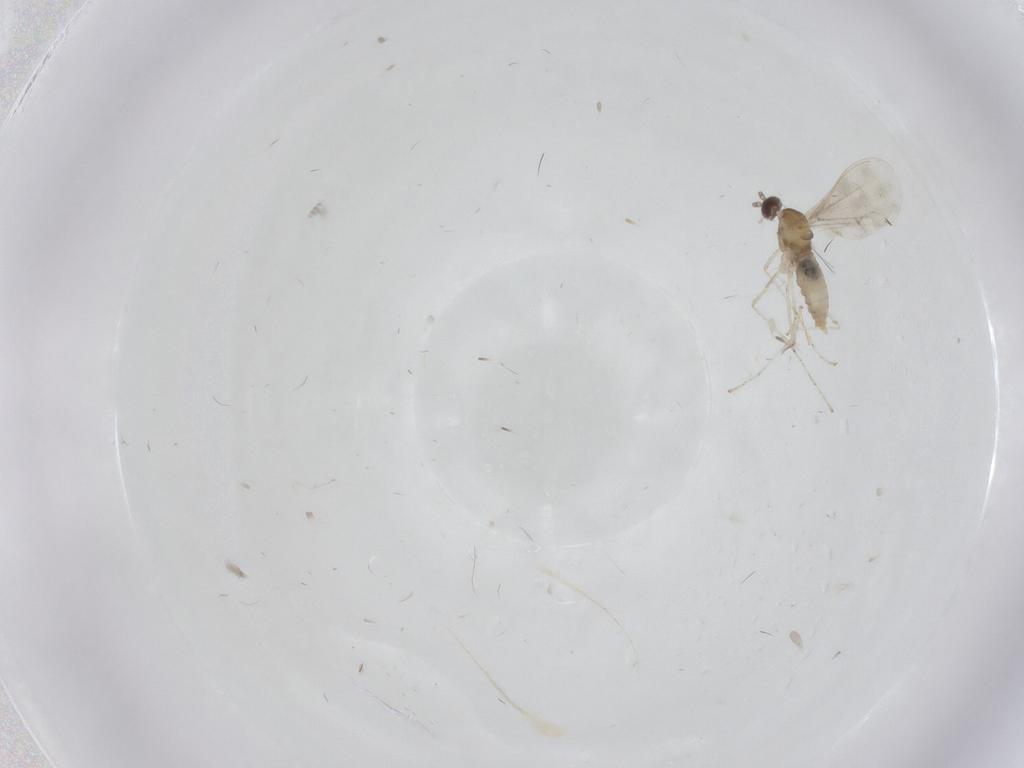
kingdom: Animalia
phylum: Arthropoda
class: Insecta
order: Diptera
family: Cecidomyiidae
